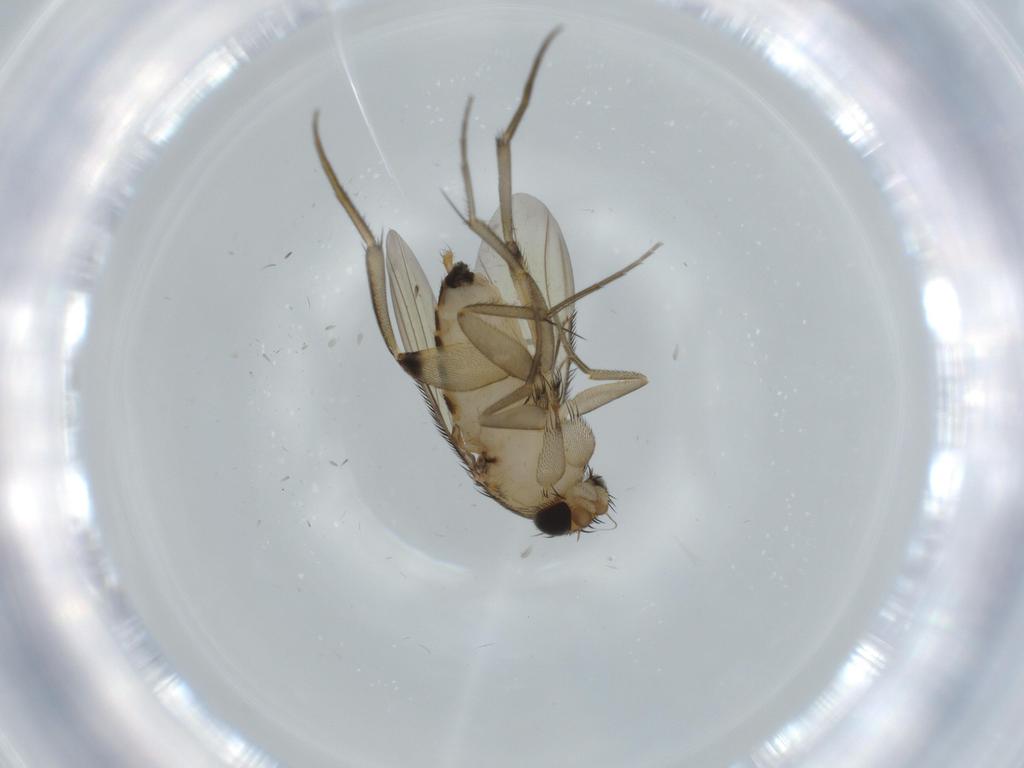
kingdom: Animalia
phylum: Arthropoda
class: Insecta
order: Diptera
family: Phoridae
